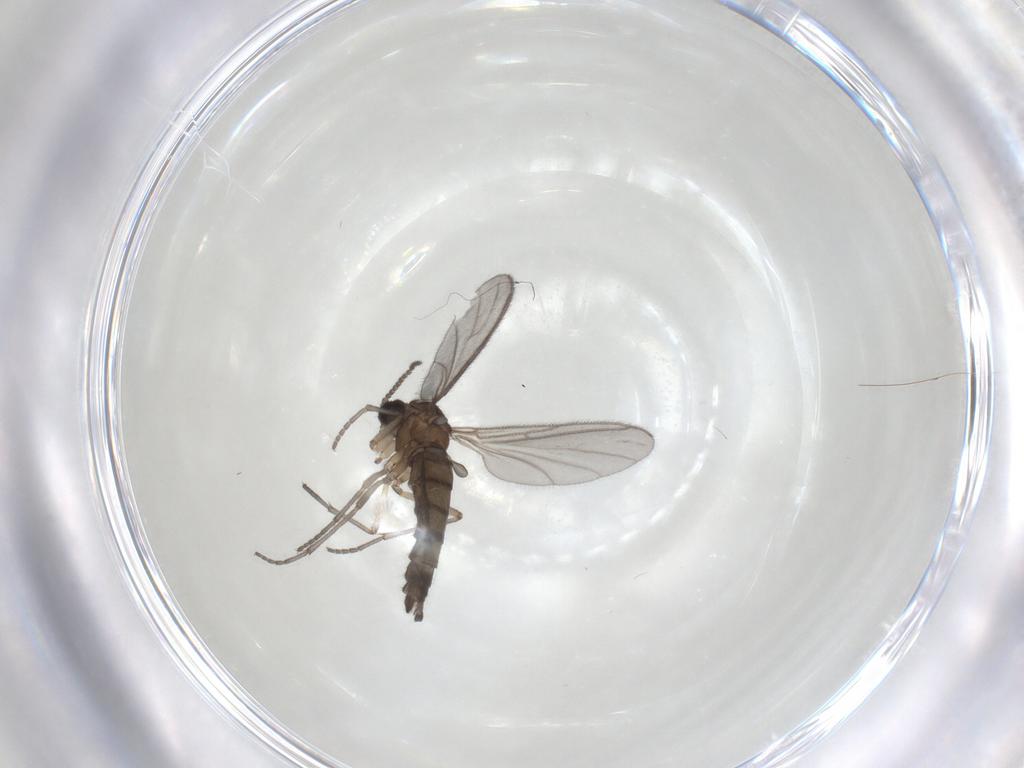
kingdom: Animalia
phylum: Arthropoda
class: Insecta
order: Diptera
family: Sciaridae
